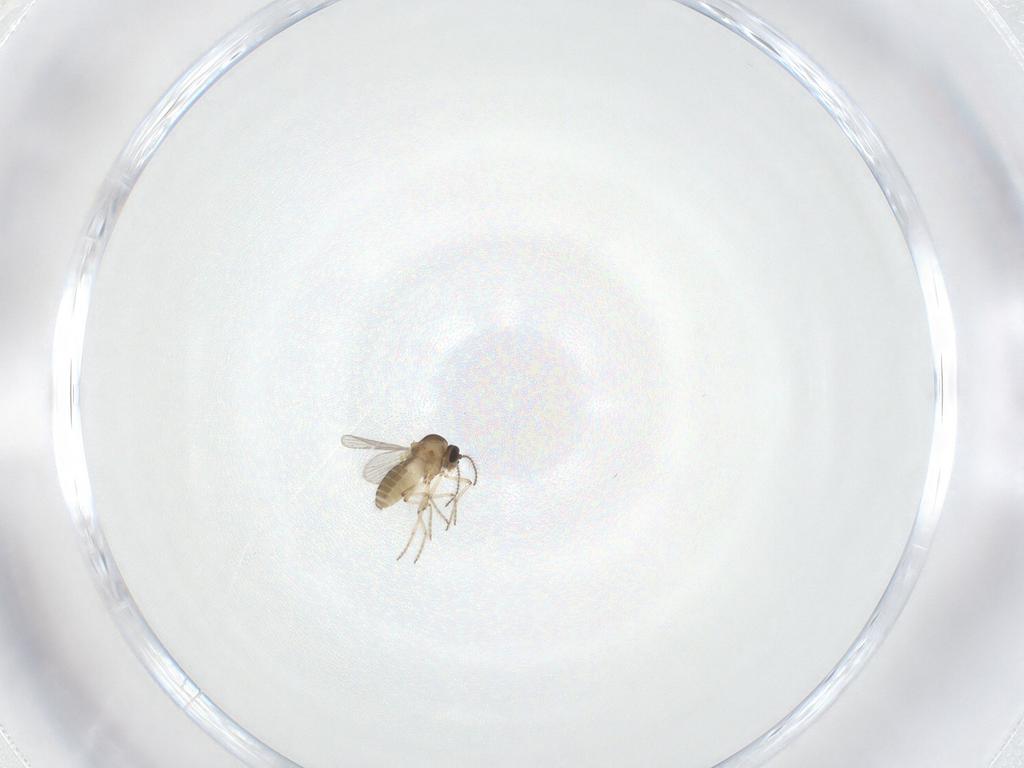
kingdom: Animalia
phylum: Arthropoda
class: Insecta
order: Diptera
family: Ceratopogonidae
